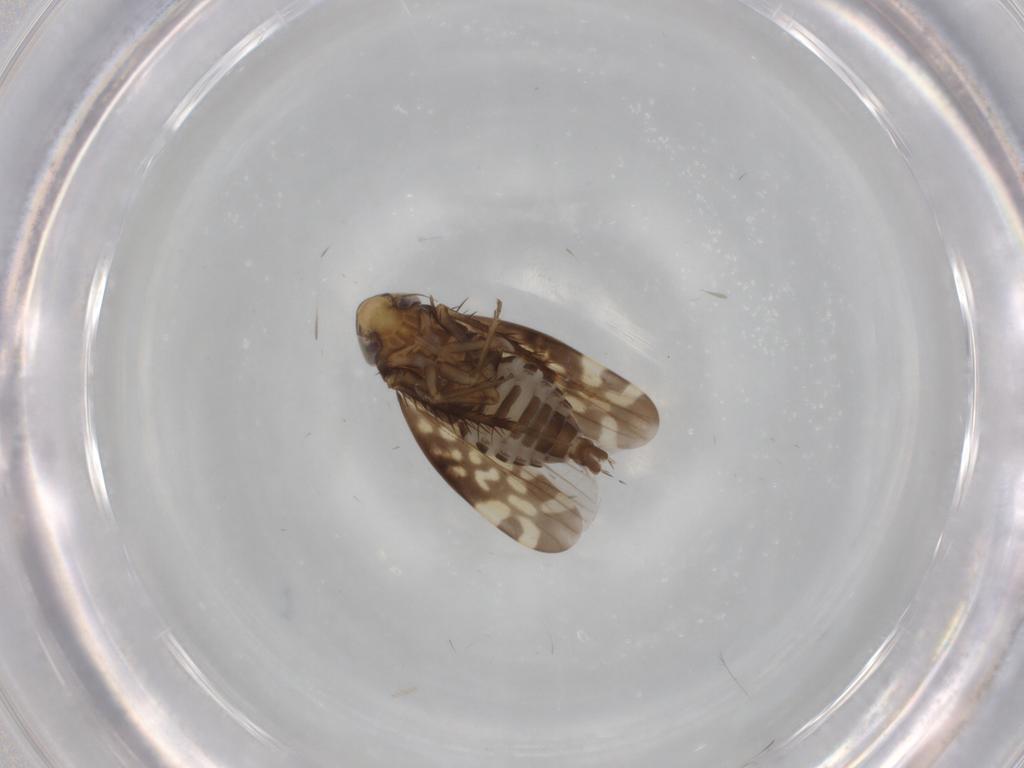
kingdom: Animalia
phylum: Arthropoda
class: Insecta
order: Hemiptera
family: Cicadellidae
